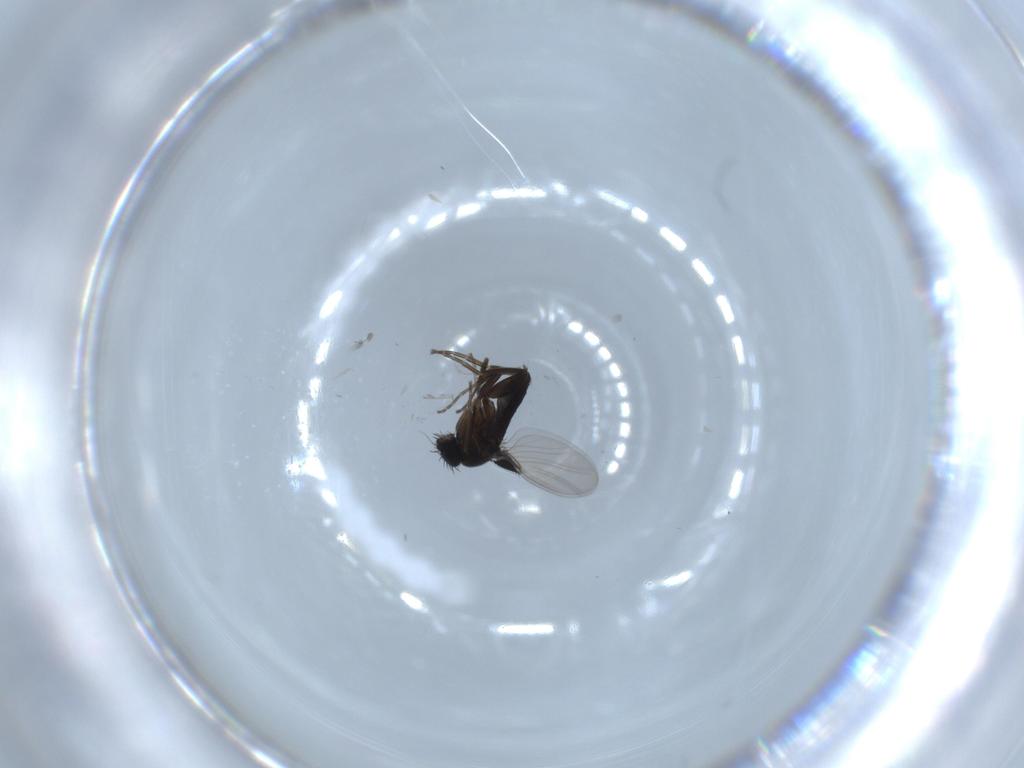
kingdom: Animalia
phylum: Arthropoda
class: Insecta
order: Diptera
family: Phoridae
